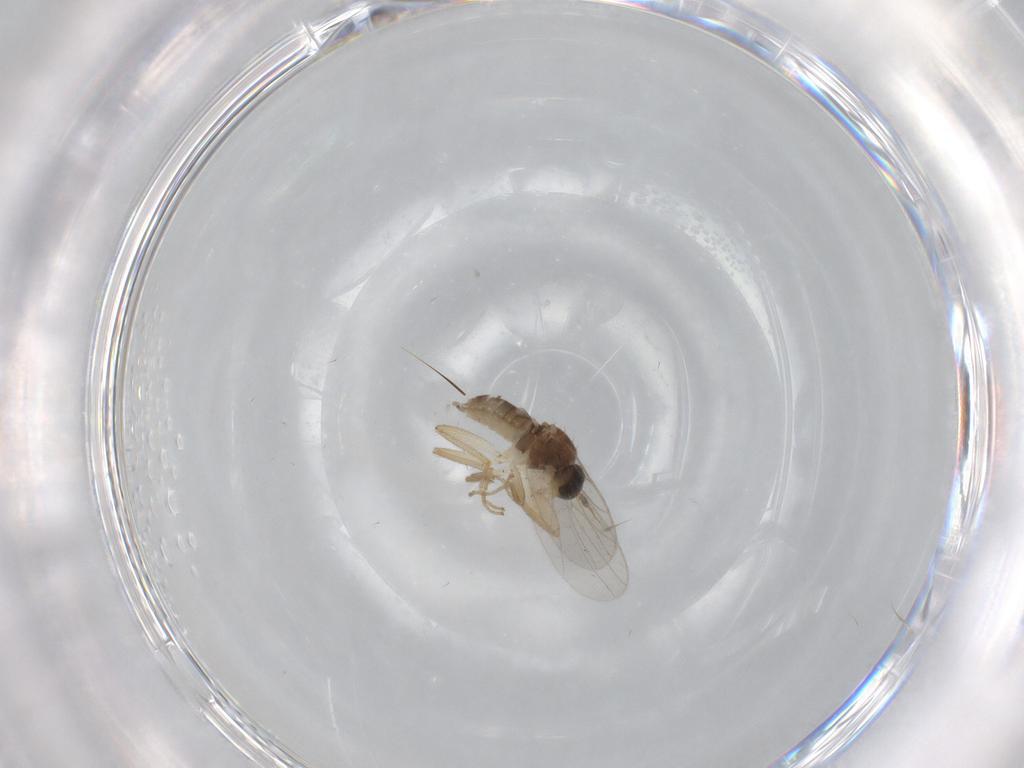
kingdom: Animalia
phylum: Arthropoda
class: Insecta
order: Diptera
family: Hybotidae
